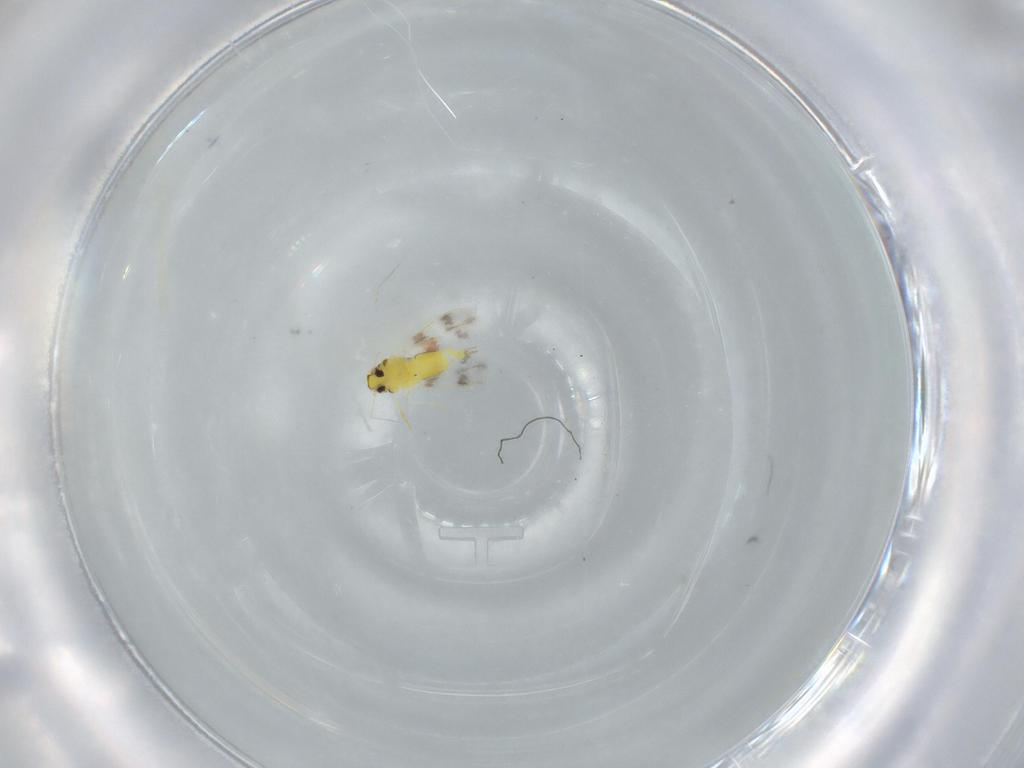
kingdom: Animalia
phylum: Arthropoda
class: Insecta
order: Hemiptera
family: Aleyrodidae
